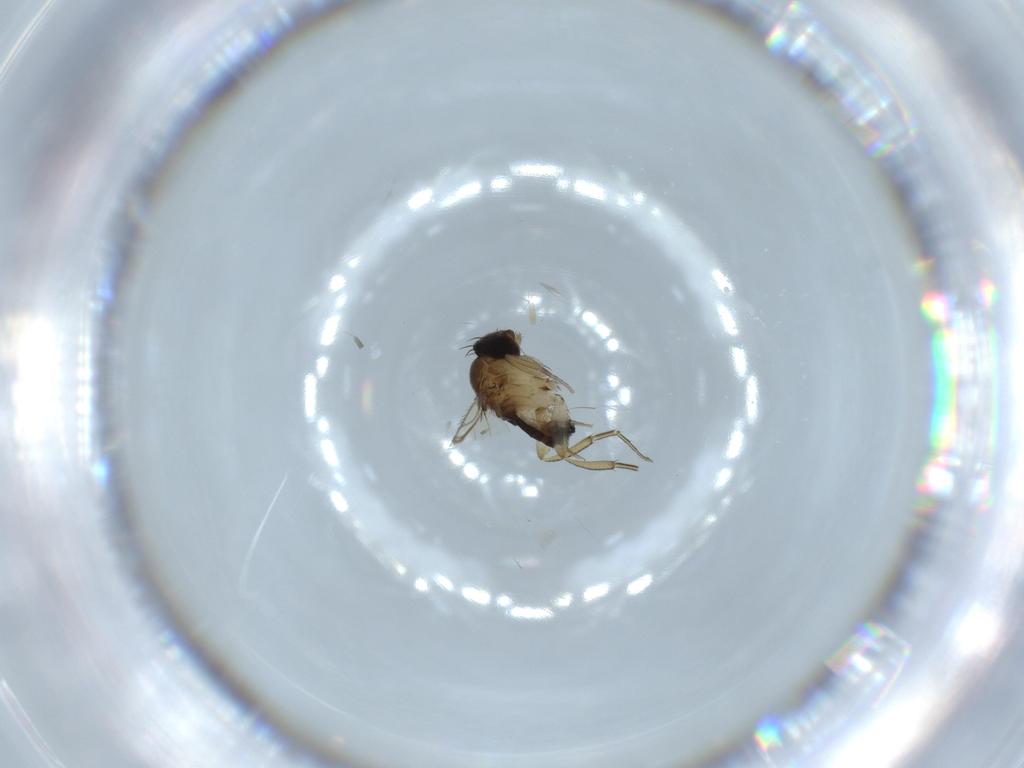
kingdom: Animalia
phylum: Arthropoda
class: Insecta
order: Diptera
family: Phoridae
